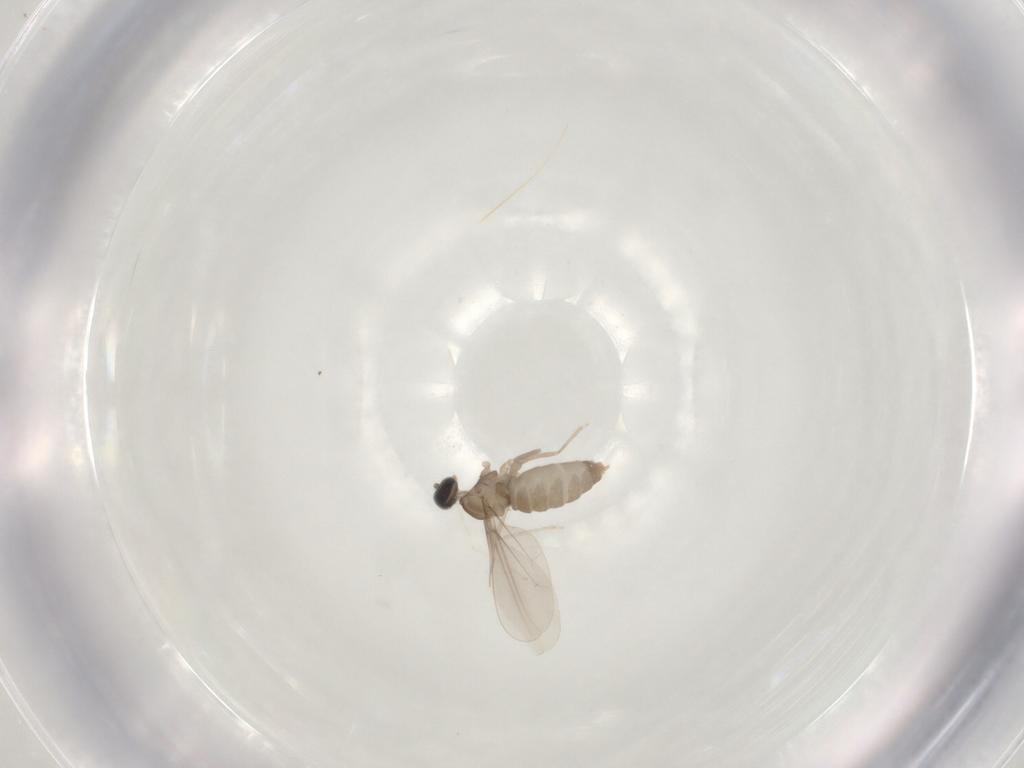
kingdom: Animalia
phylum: Arthropoda
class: Insecta
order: Diptera
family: Cecidomyiidae
